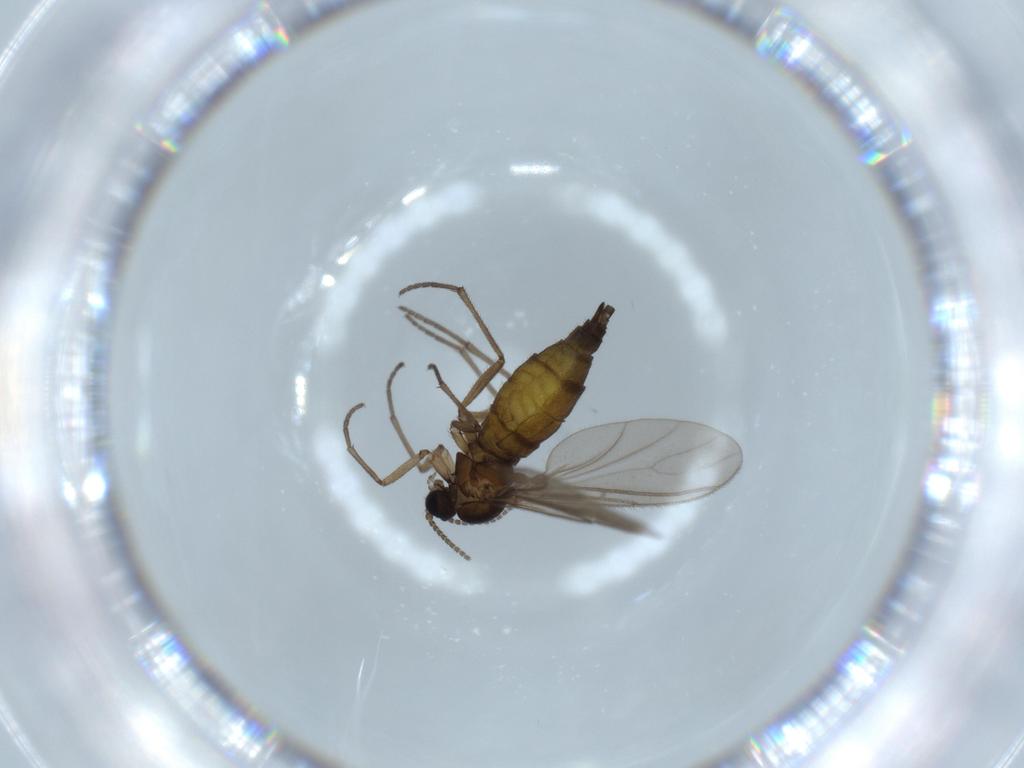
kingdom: Animalia
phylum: Arthropoda
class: Insecta
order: Diptera
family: Sciaridae
